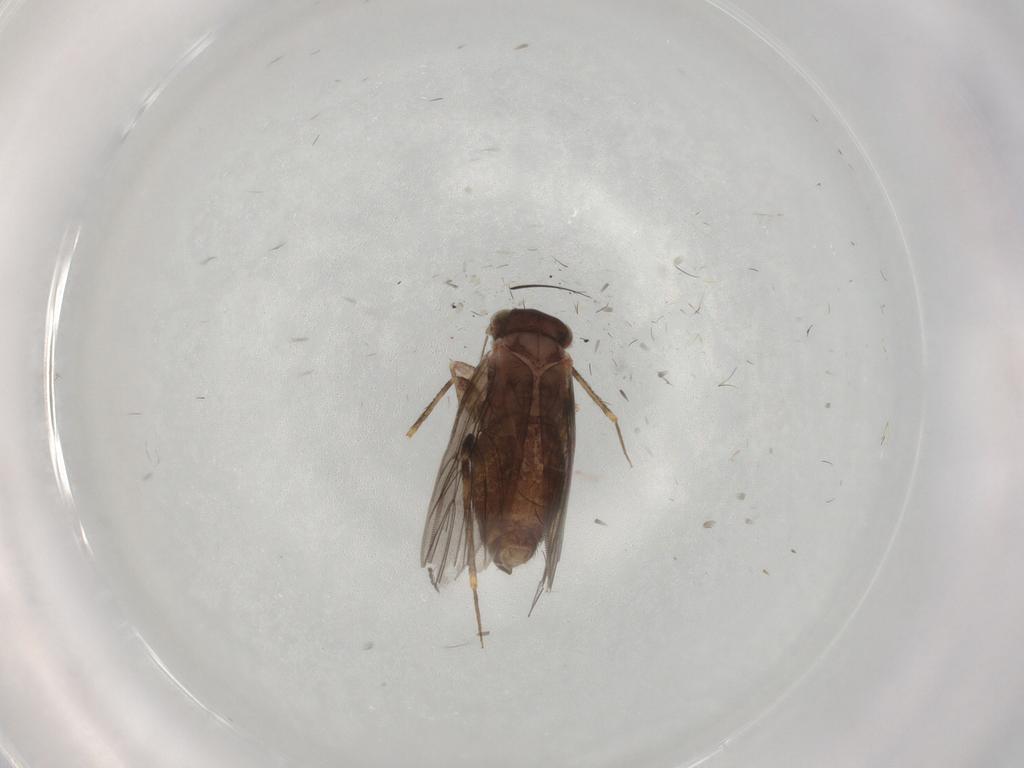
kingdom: Animalia
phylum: Arthropoda
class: Insecta
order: Psocodea
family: Lepidopsocidae
